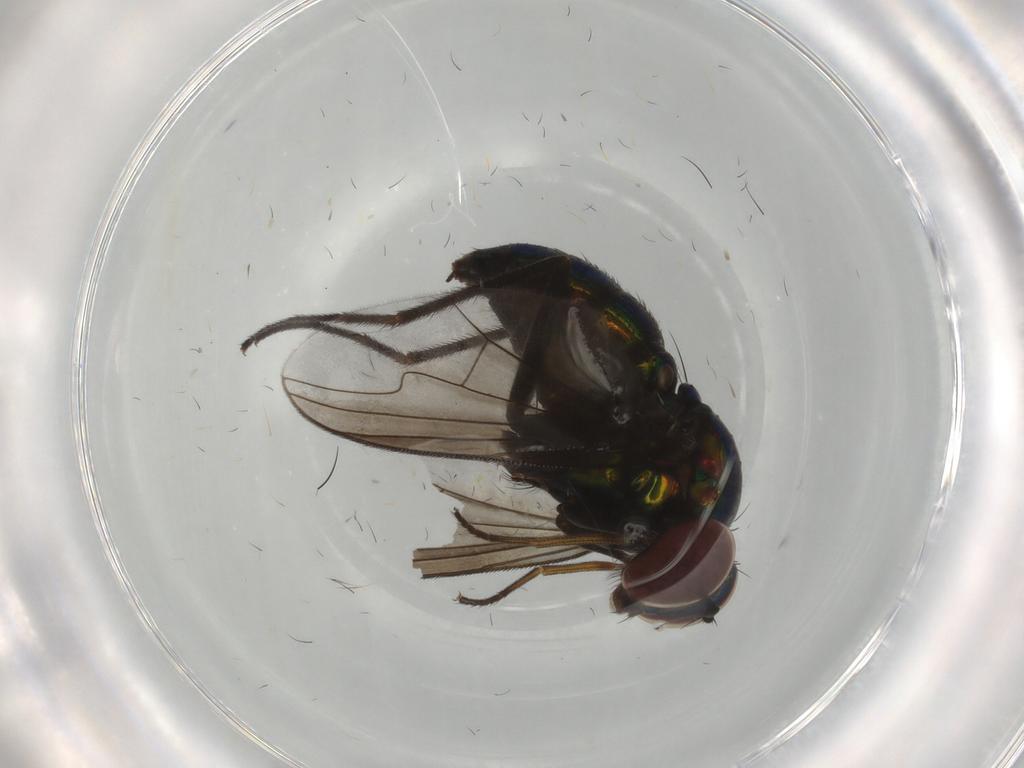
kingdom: Animalia
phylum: Arthropoda
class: Insecta
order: Diptera
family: Dolichopodidae
